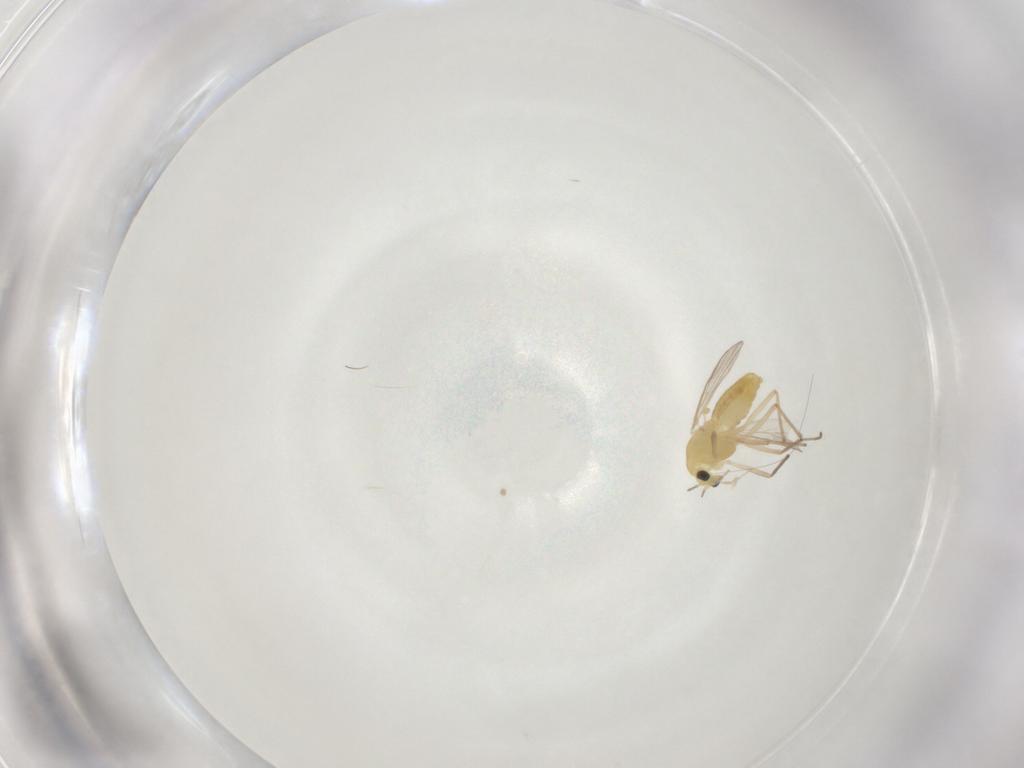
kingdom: Animalia
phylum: Arthropoda
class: Insecta
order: Diptera
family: Chironomidae
